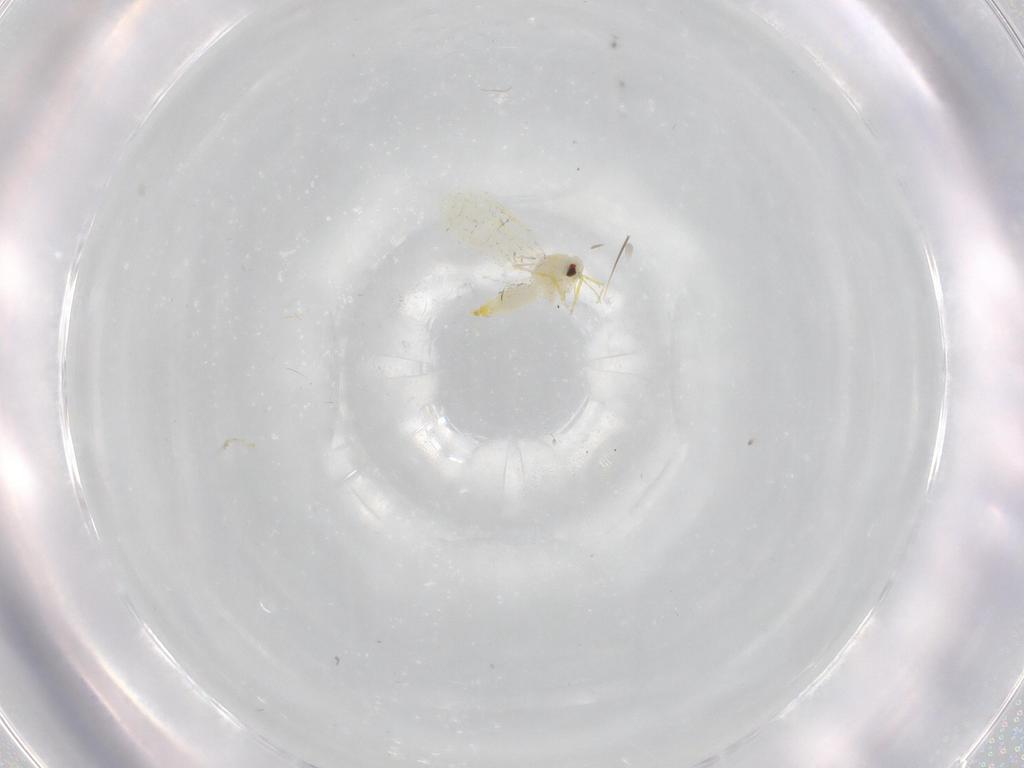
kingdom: Animalia
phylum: Arthropoda
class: Insecta
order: Hemiptera
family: Aleyrodidae
